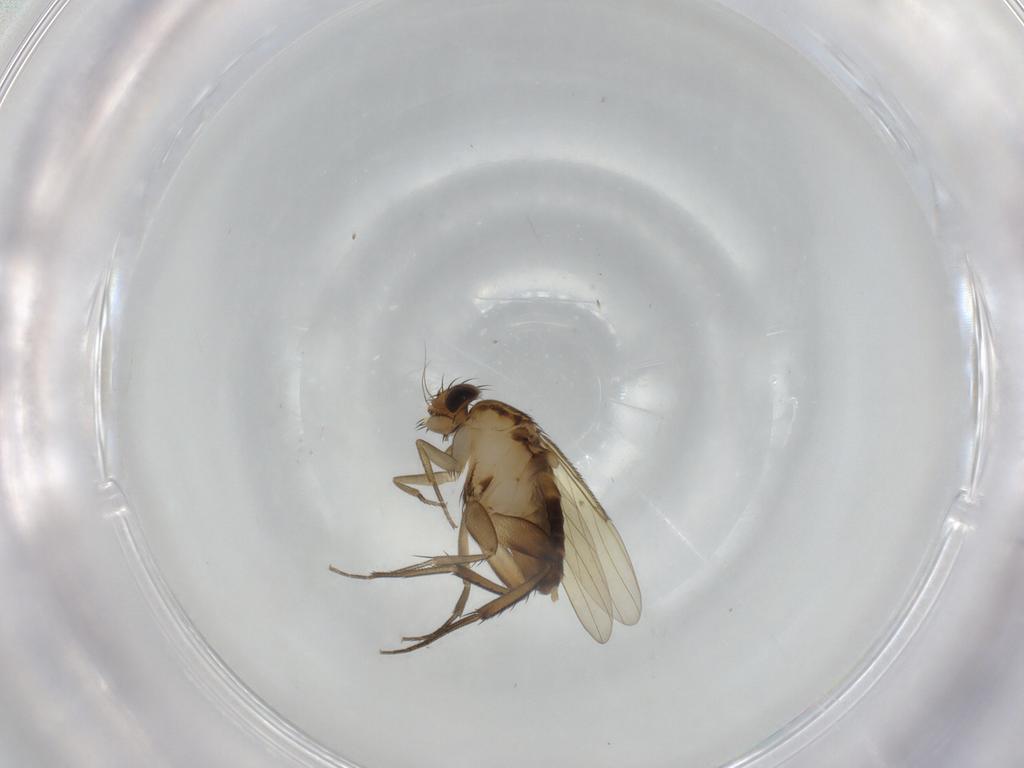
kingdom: Animalia
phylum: Arthropoda
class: Insecta
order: Diptera
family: Phoridae
